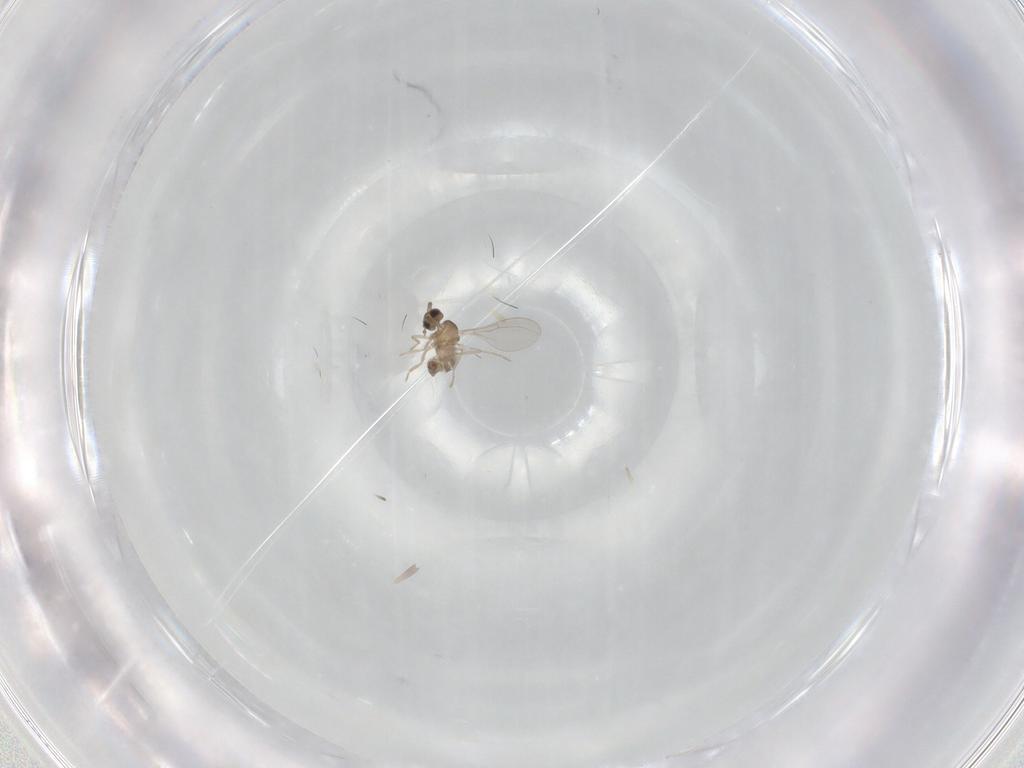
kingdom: Animalia
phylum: Arthropoda
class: Insecta
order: Diptera
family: Cecidomyiidae
